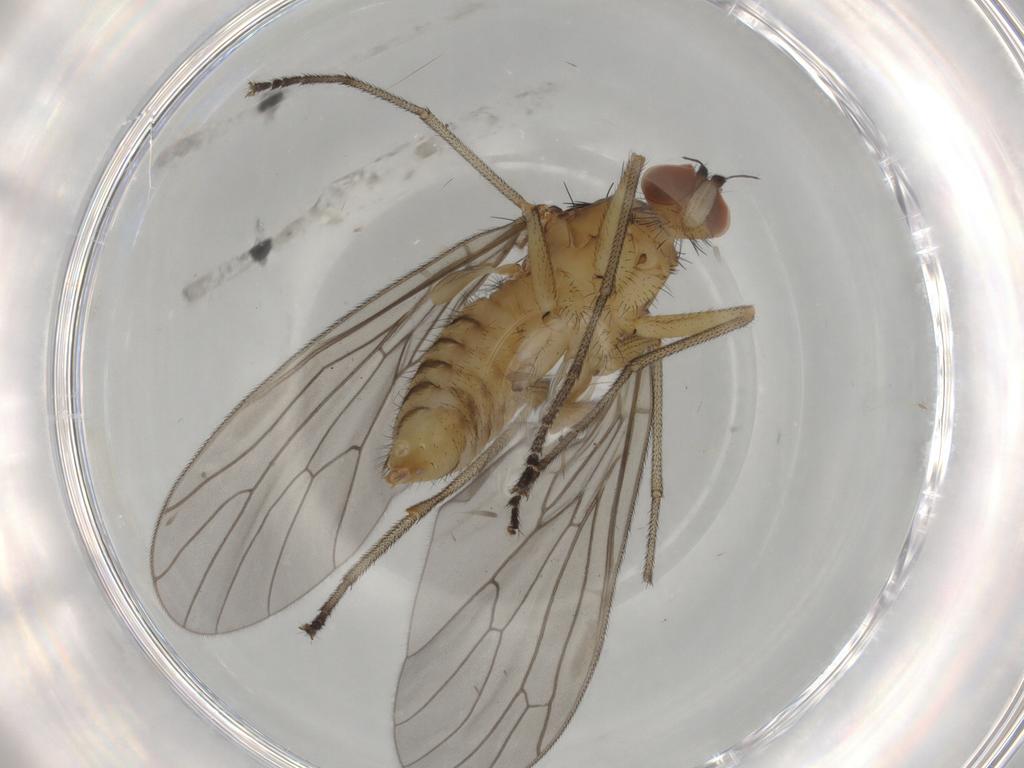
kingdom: Animalia
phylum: Arthropoda
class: Insecta
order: Diptera
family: Brachystomatidae
